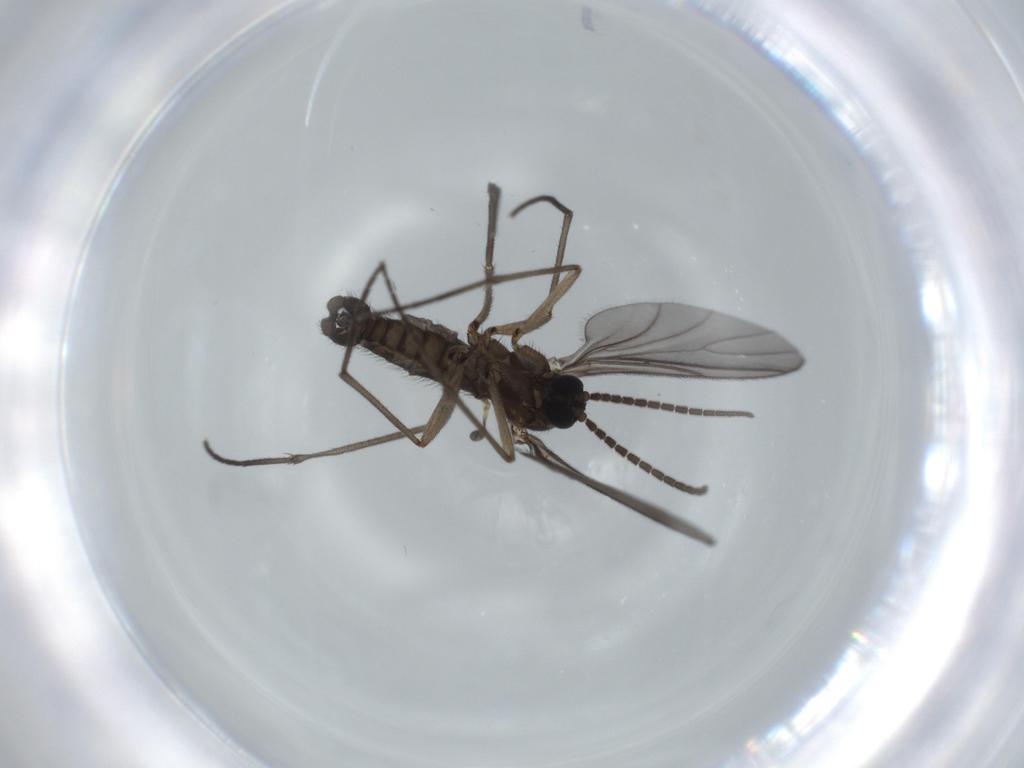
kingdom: Animalia
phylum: Arthropoda
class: Insecta
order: Diptera
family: Sciaridae
